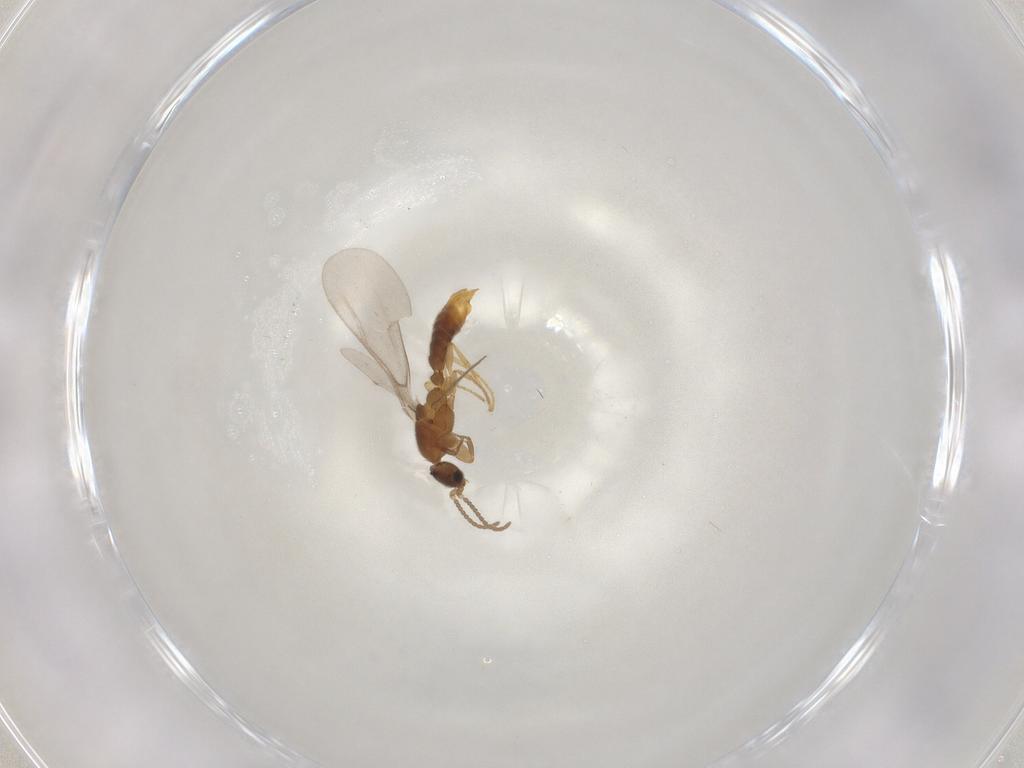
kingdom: Animalia
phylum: Arthropoda
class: Insecta
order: Hymenoptera
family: Formicidae
